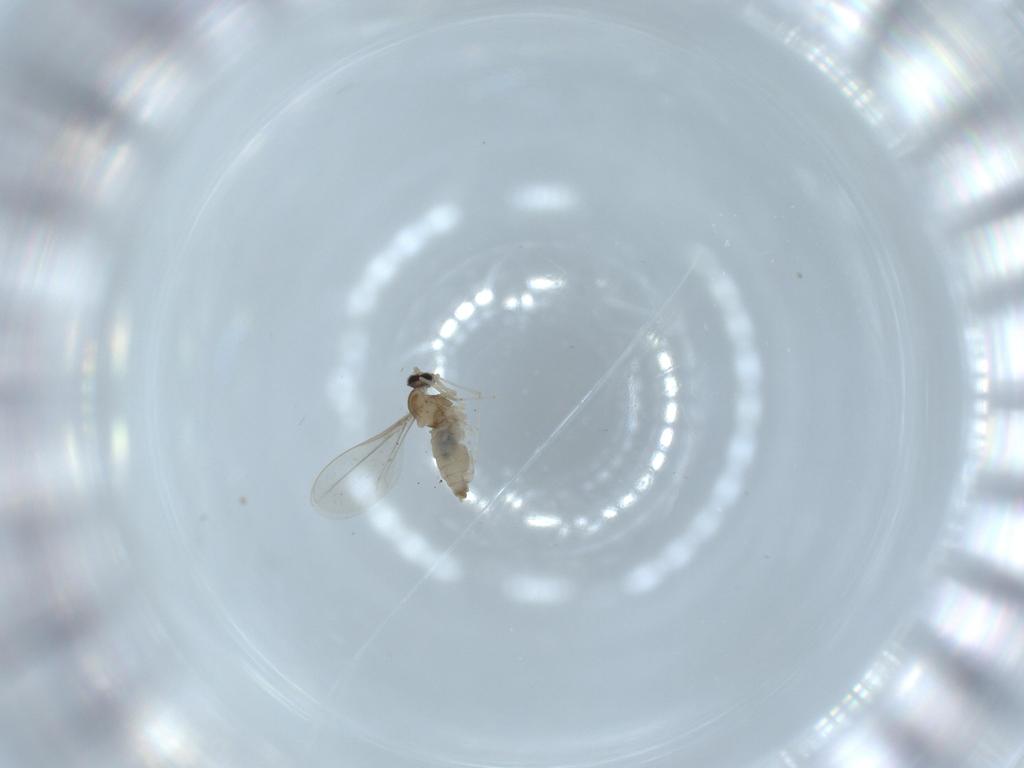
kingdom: Animalia
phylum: Arthropoda
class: Insecta
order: Diptera
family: Cecidomyiidae
